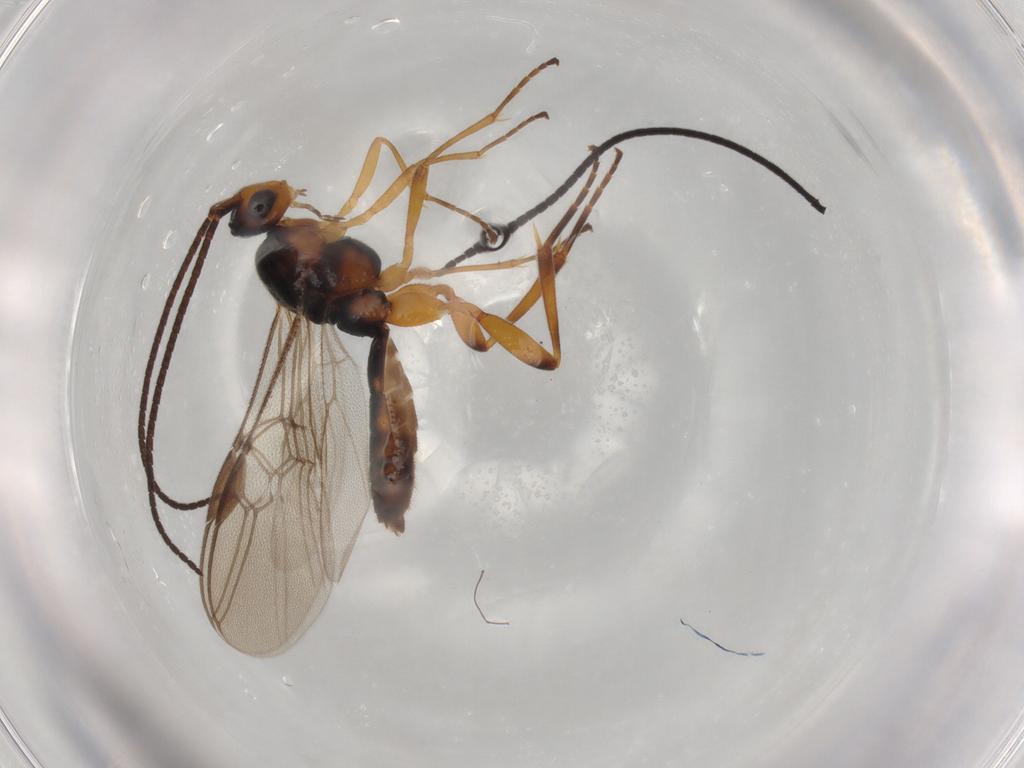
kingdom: Animalia
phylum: Arthropoda
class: Insecta
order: Hymenoptera
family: Braconidae
